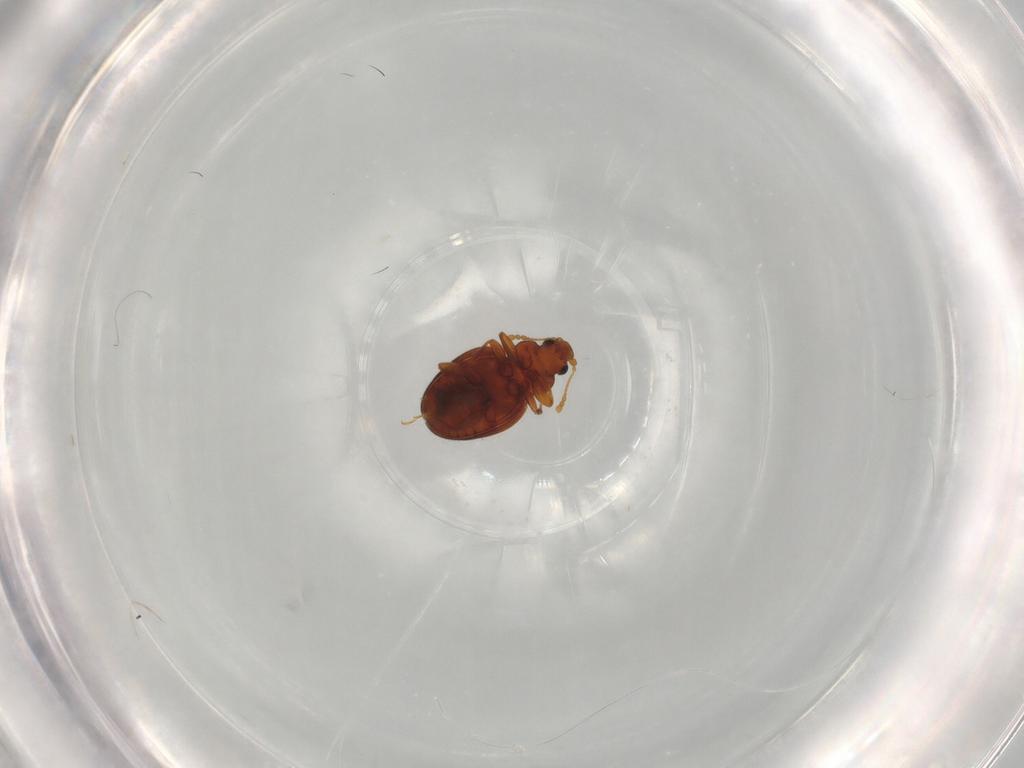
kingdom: Animalia
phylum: Arthropoda
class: Insecta
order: Coleoptera
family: Latridiidae
